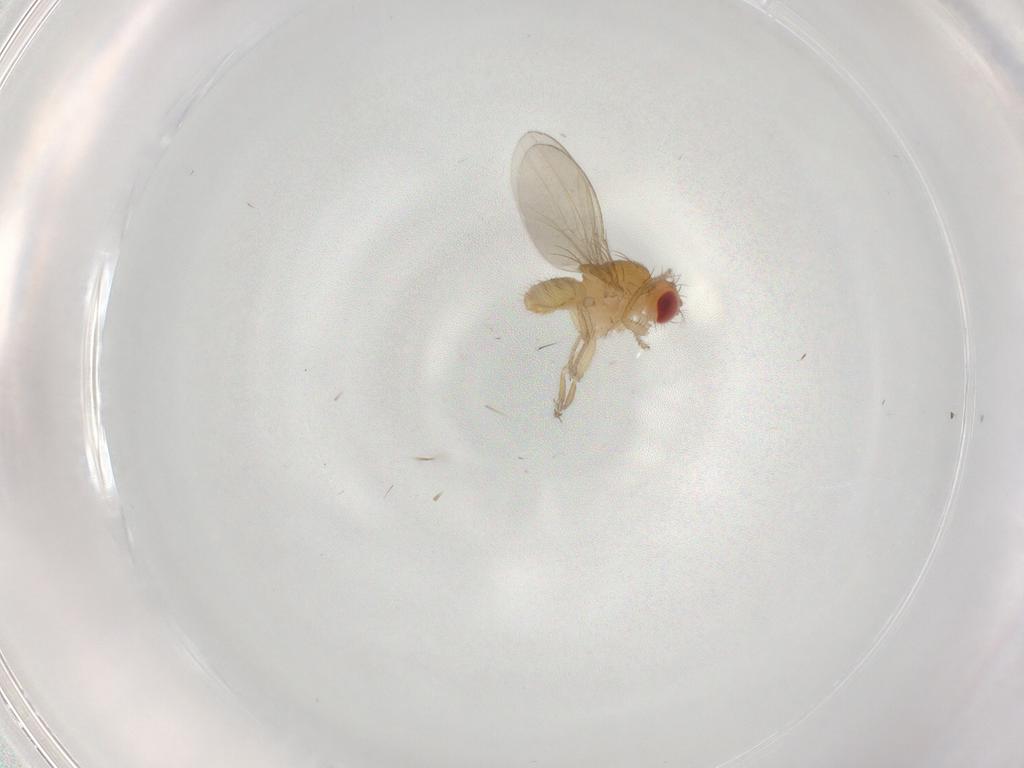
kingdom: Animalia
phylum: Arthropoda
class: Insecta
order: Diptera
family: Drosophilidae
